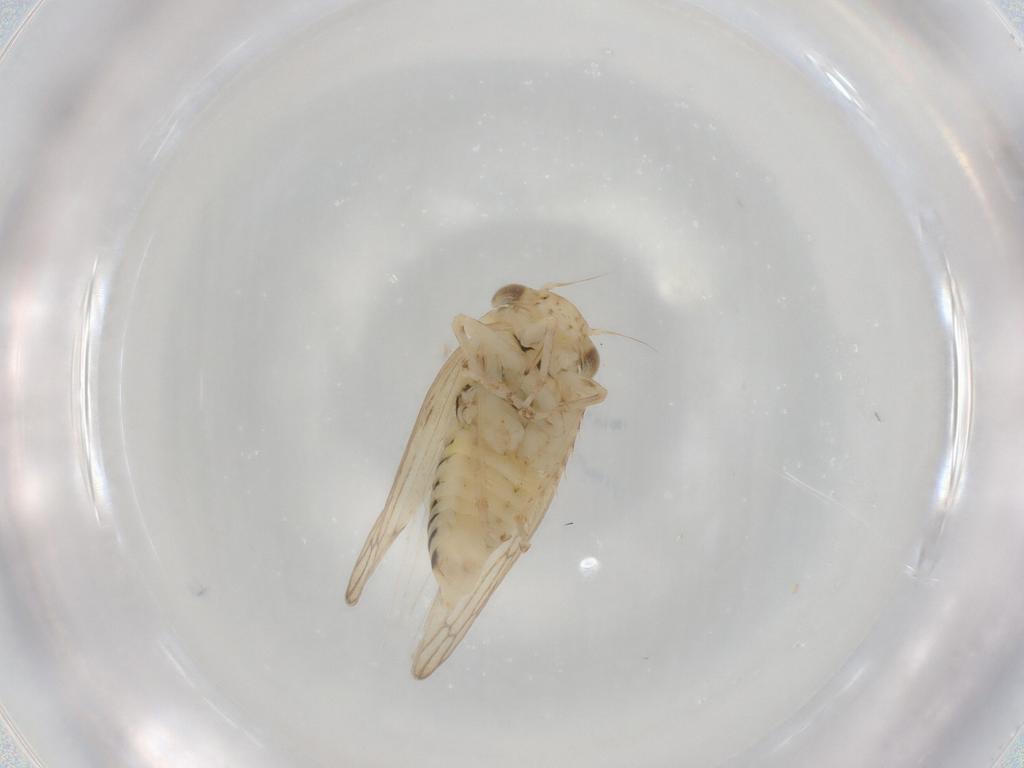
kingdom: Animalia
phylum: Arthropoda
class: Insecta
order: Hemiptera
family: Cicadellidae
